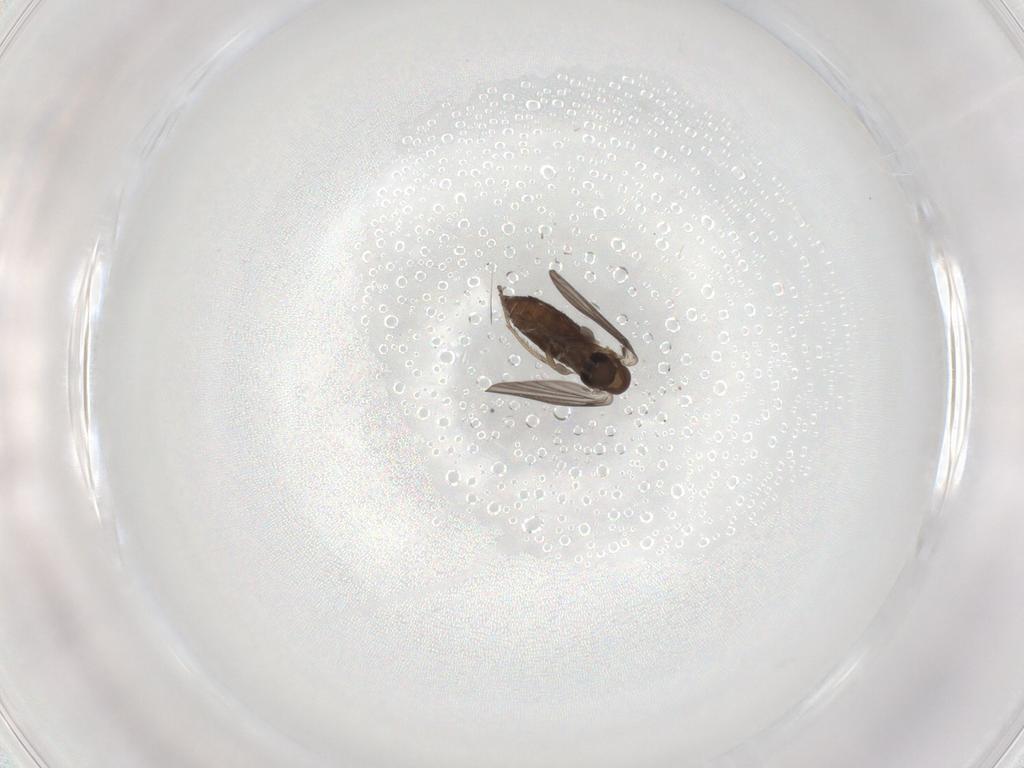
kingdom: Animalia
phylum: Arthropoda
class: Insecta
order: Diptera
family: Phoridae
